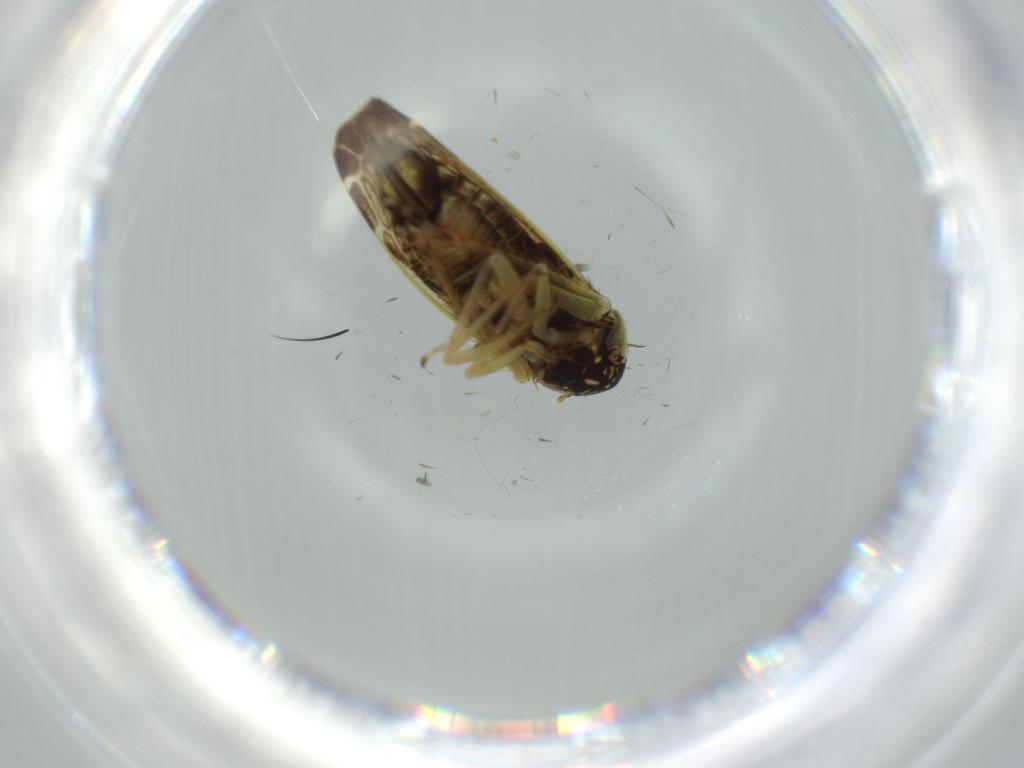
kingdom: Animalia
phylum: Arthropoda
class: Insecta
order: Hemiptera
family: Cicadellidae
